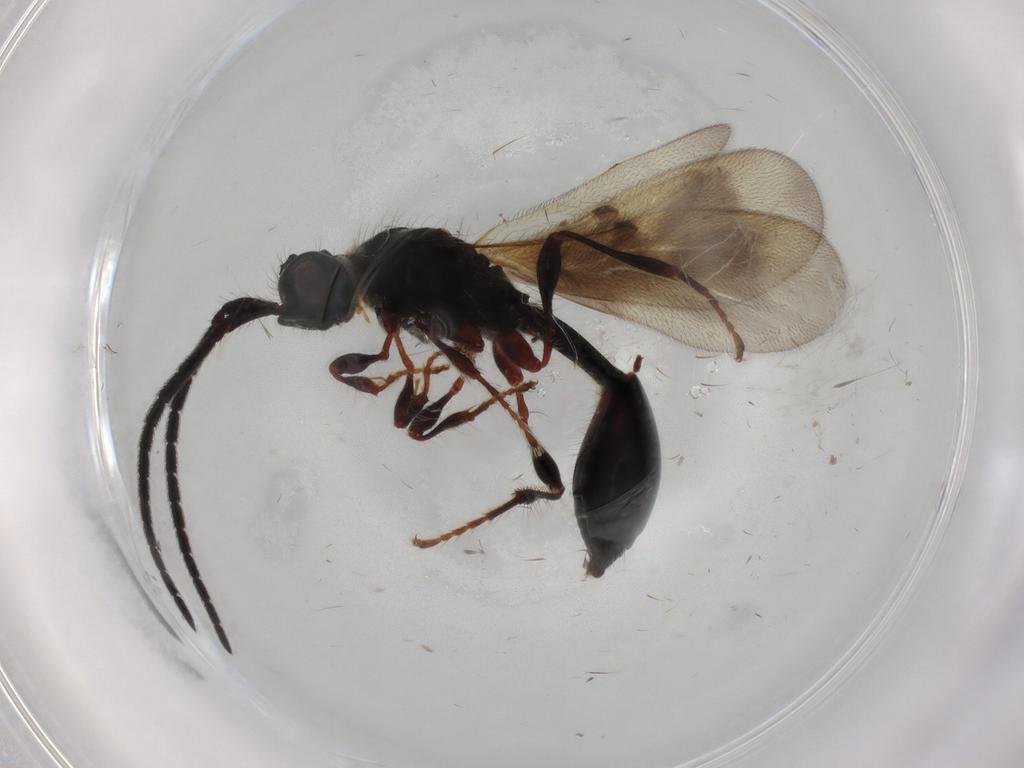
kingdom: Animalia
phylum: Arthropoda
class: Insecta
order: Hymenoptera
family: Diapriidae
